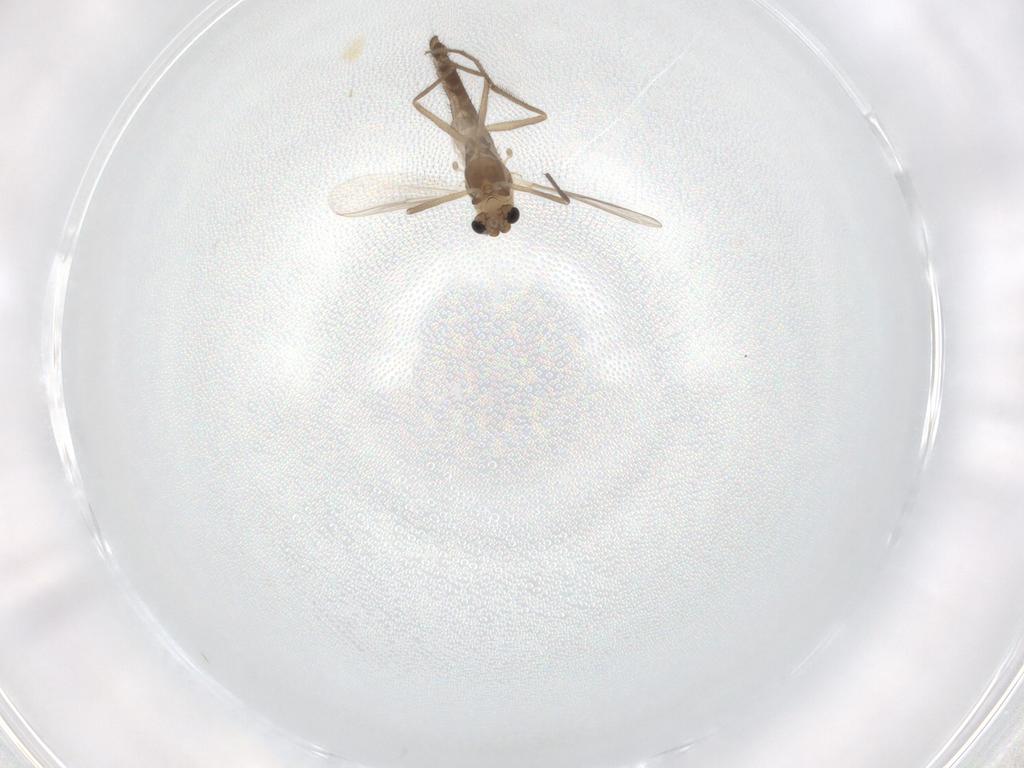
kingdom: Animalia
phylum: Arthropoda
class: Insecta
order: Diptera
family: Chironomidae
